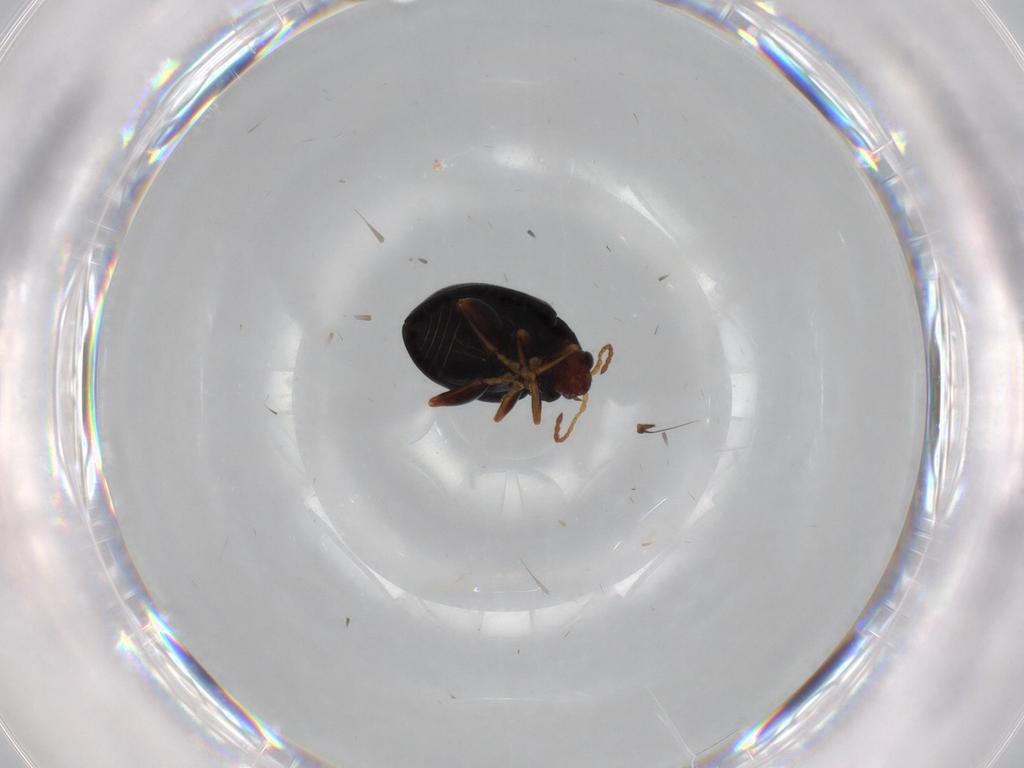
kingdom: Animalia
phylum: Arthropoda
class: Insecta
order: Coleoptera
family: Chrysomelidae
